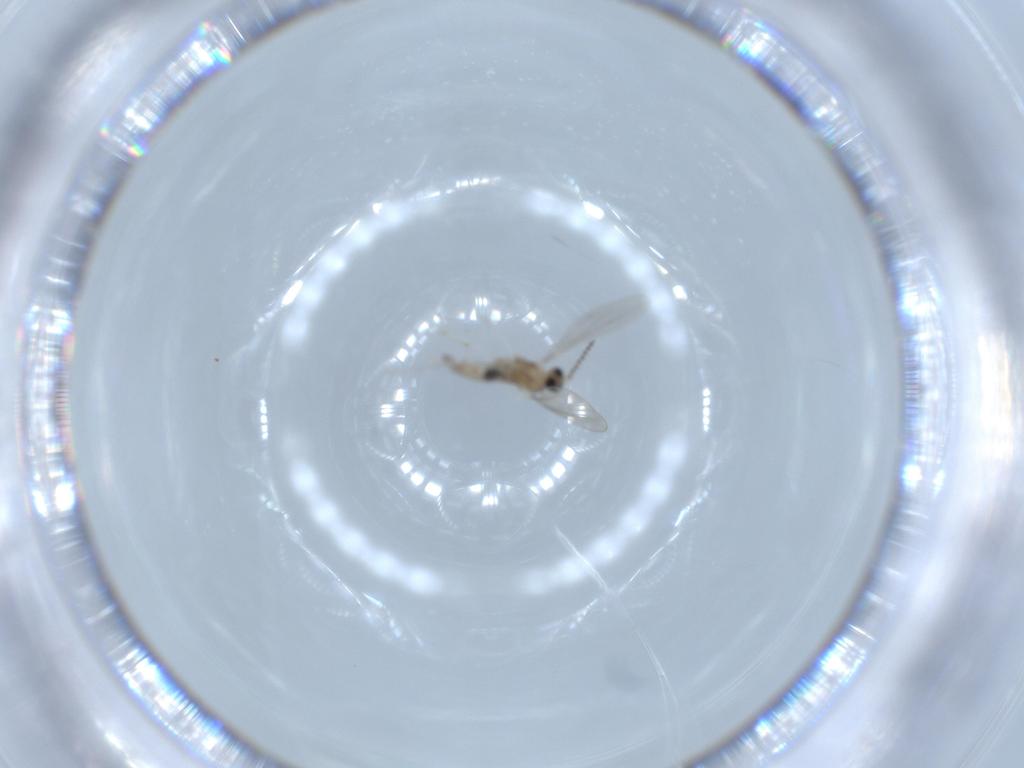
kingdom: Animalia
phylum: Arthropoda
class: Insecta
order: Diptera
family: Cecidomyiidae
